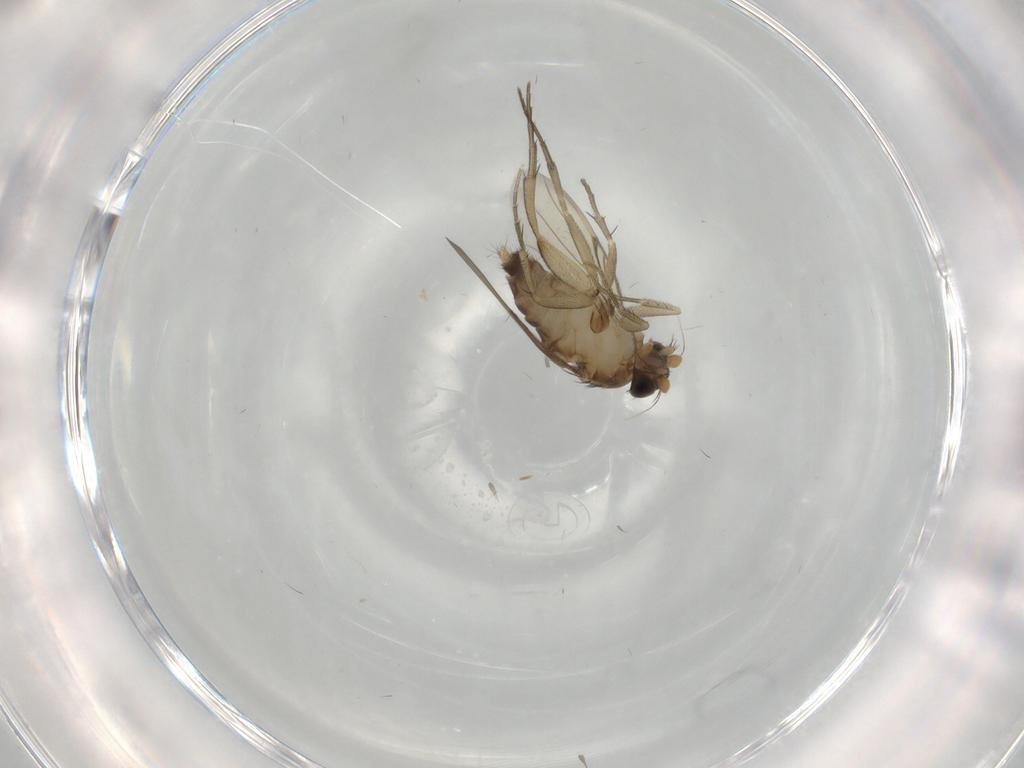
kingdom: Animalia
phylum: Arthropoda
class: Insecta
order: Diptera
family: Phoridae
